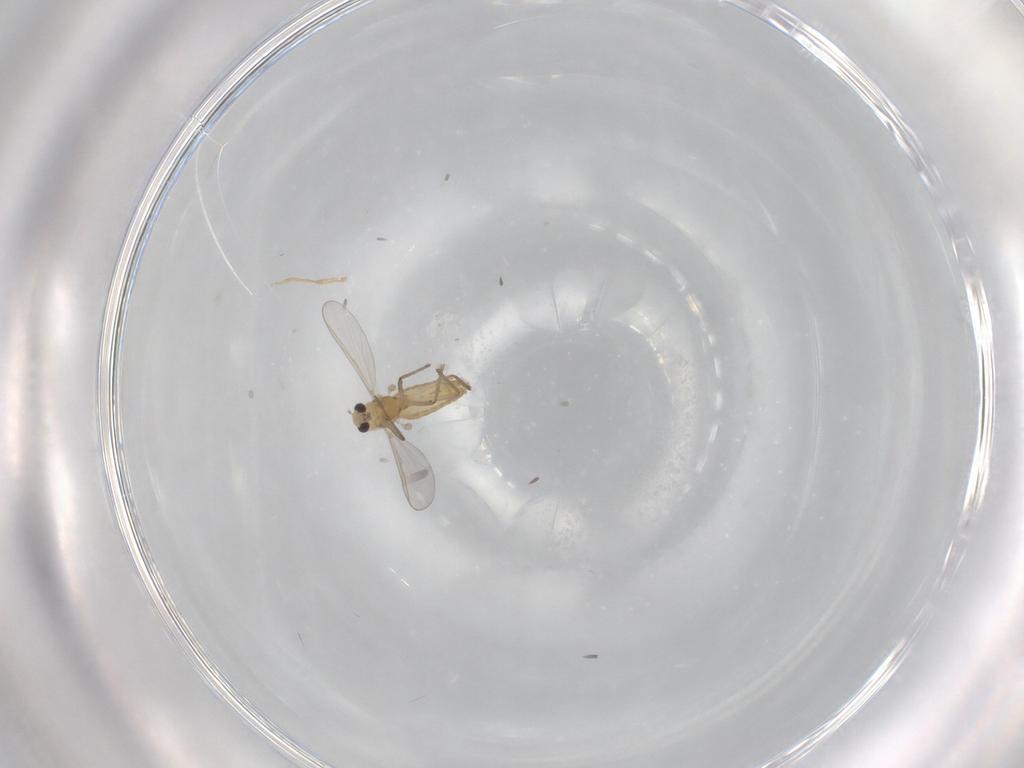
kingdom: Animalia
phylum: Arthropoda
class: Insecta
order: Diptera
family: Chironomidae
